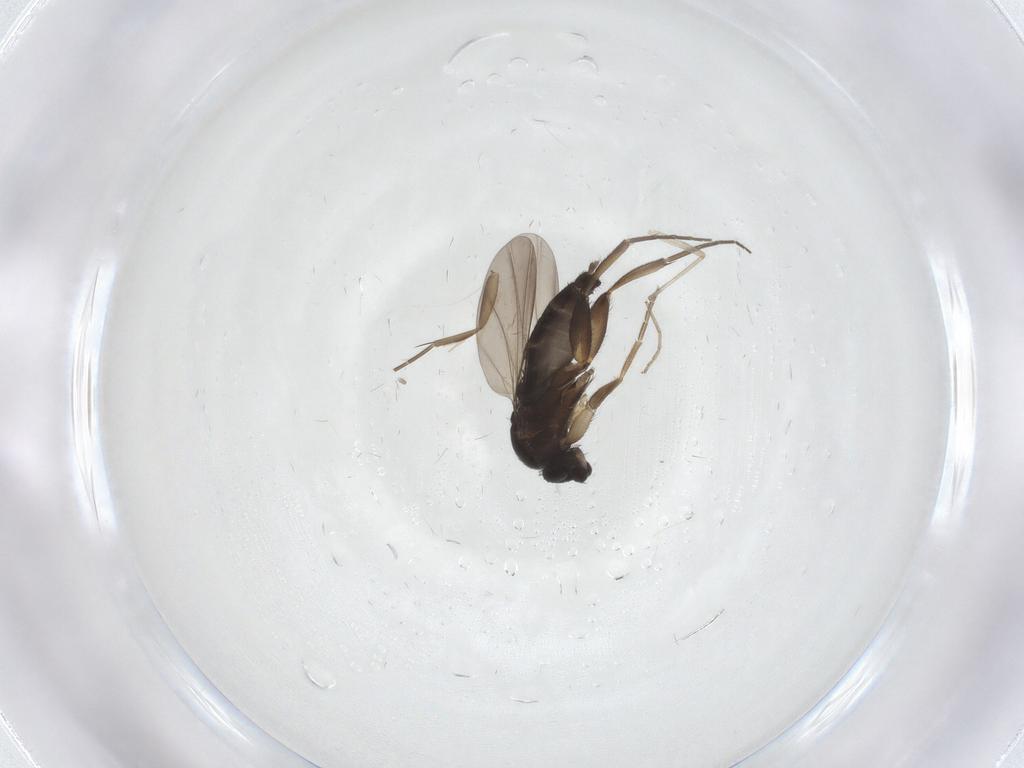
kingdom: Animalia
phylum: Arthropoda
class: Insecta
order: Diptera
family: Phoridae
